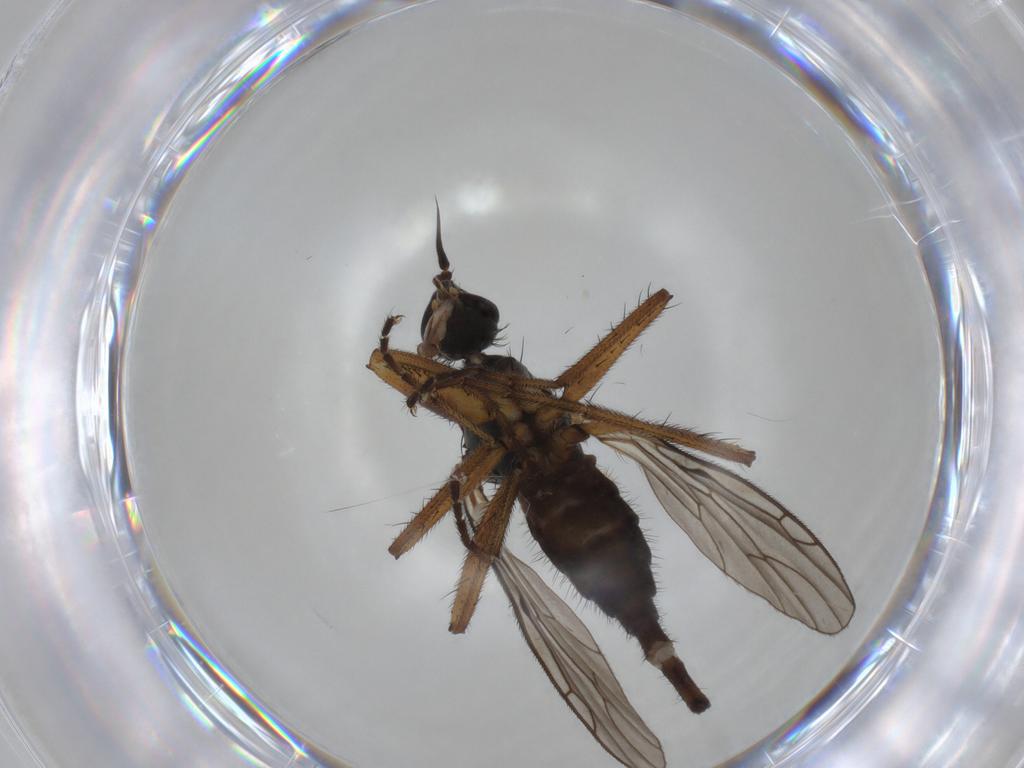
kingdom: Animalia
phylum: Arthropoda
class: Insecta
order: Diptera
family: Empididae
